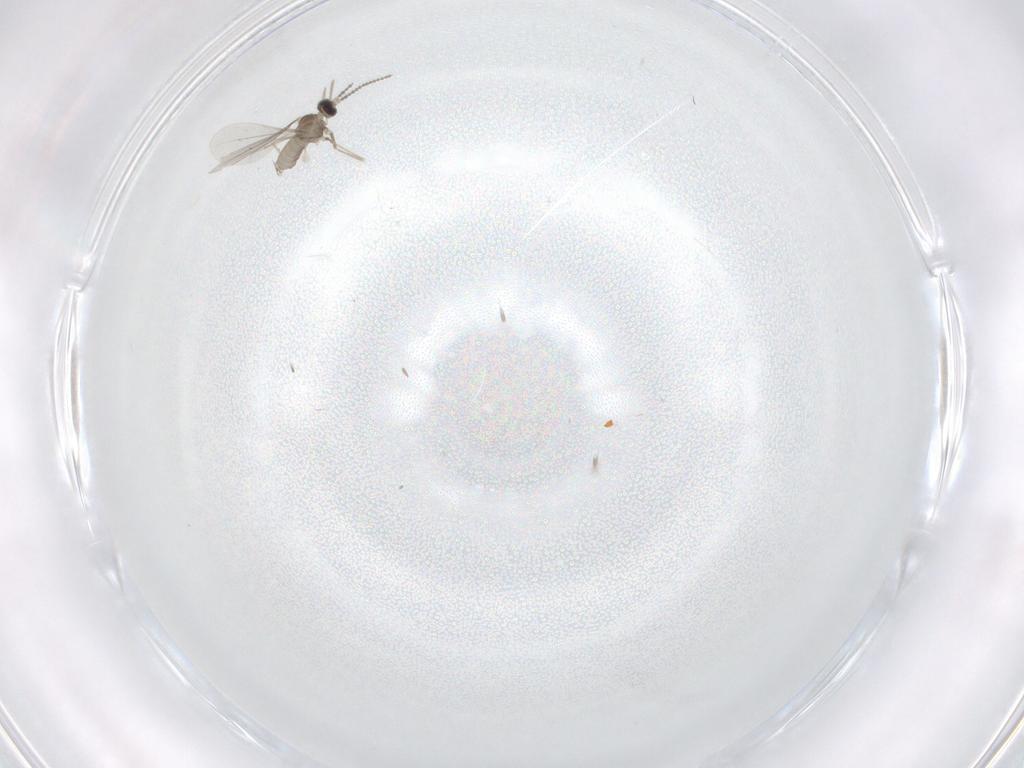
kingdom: Animalia
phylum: Arthropoda
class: Insecta
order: Diptera
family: Cecidomyiidae
